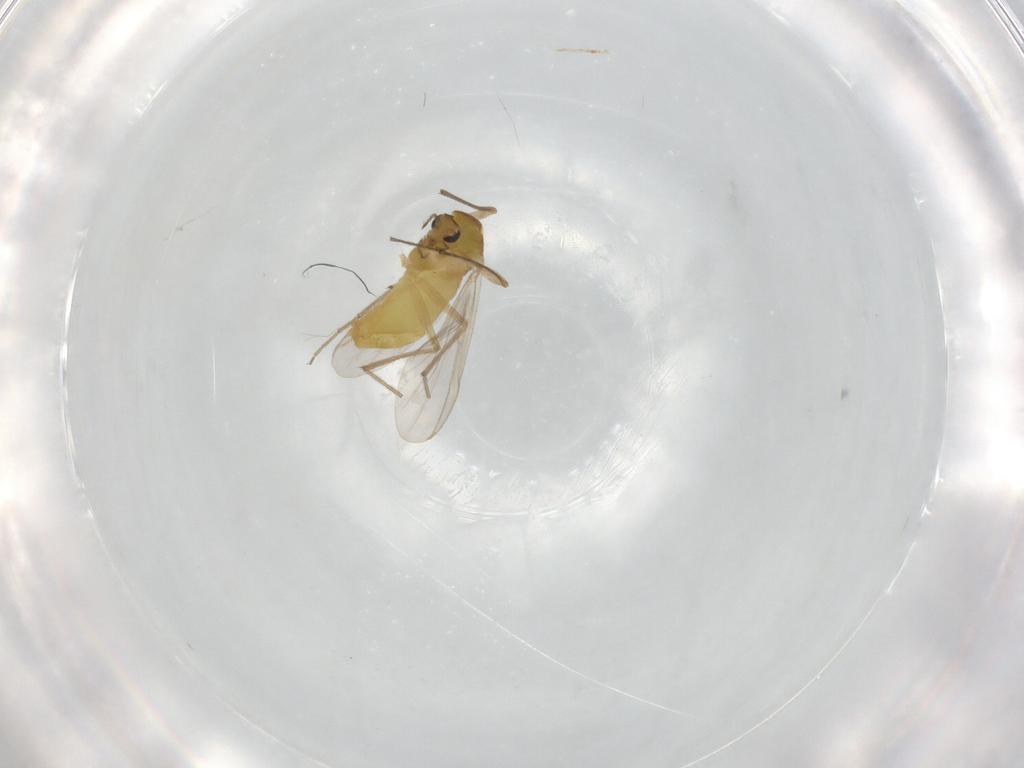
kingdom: Animalia
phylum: Arthropoda
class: Insecta
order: Diptera
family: Chironomidae
